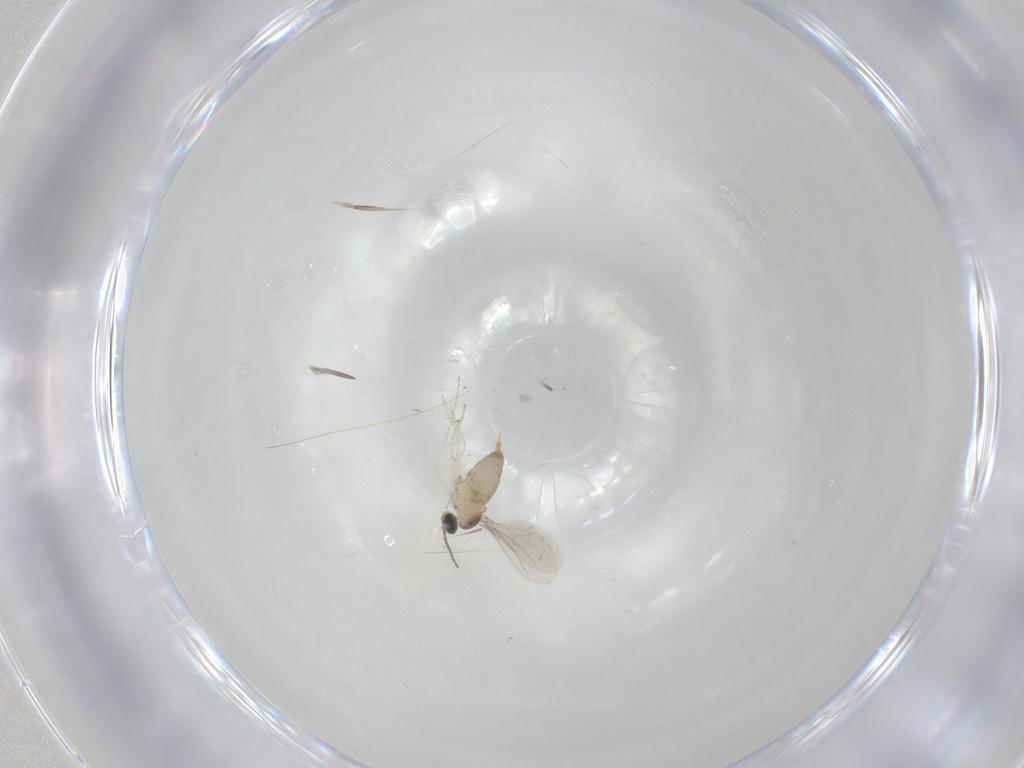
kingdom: Animalia
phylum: Arthropoda
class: Insecta
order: Diptera
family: Cecidomyiidae
